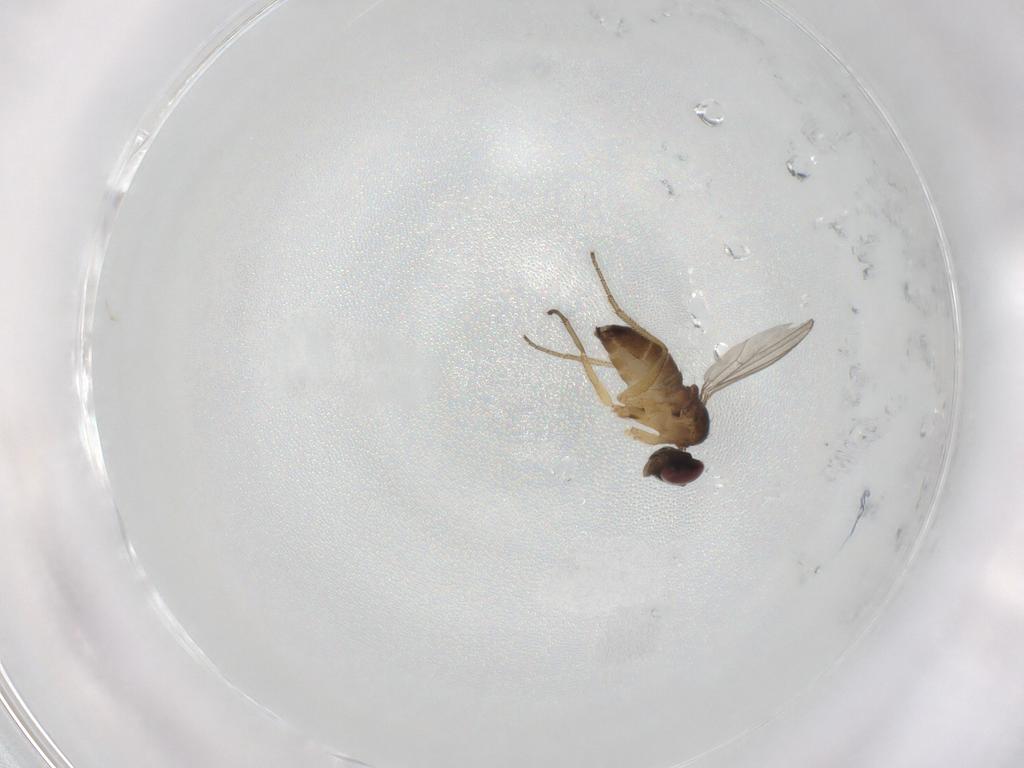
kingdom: Animalia
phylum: Arthropoda
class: Insecta
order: Diptera
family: Dolichopodidae
